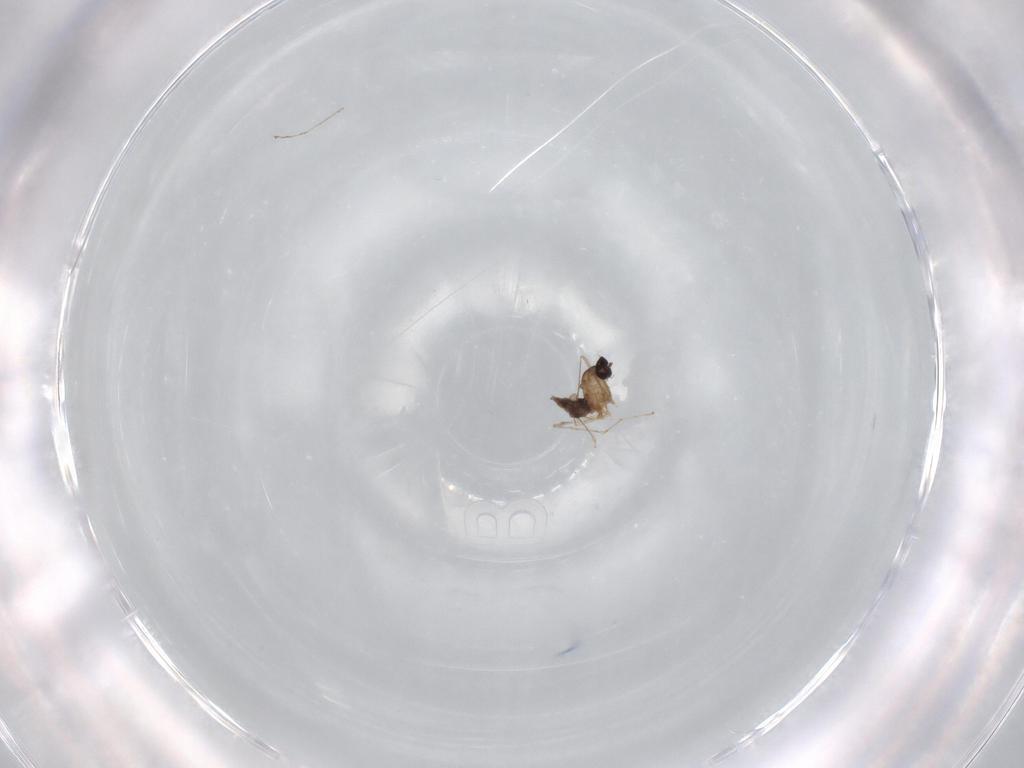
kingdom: Animalia
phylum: Arthropoda
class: Insecta
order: Diptera
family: Cecidomyiidae
